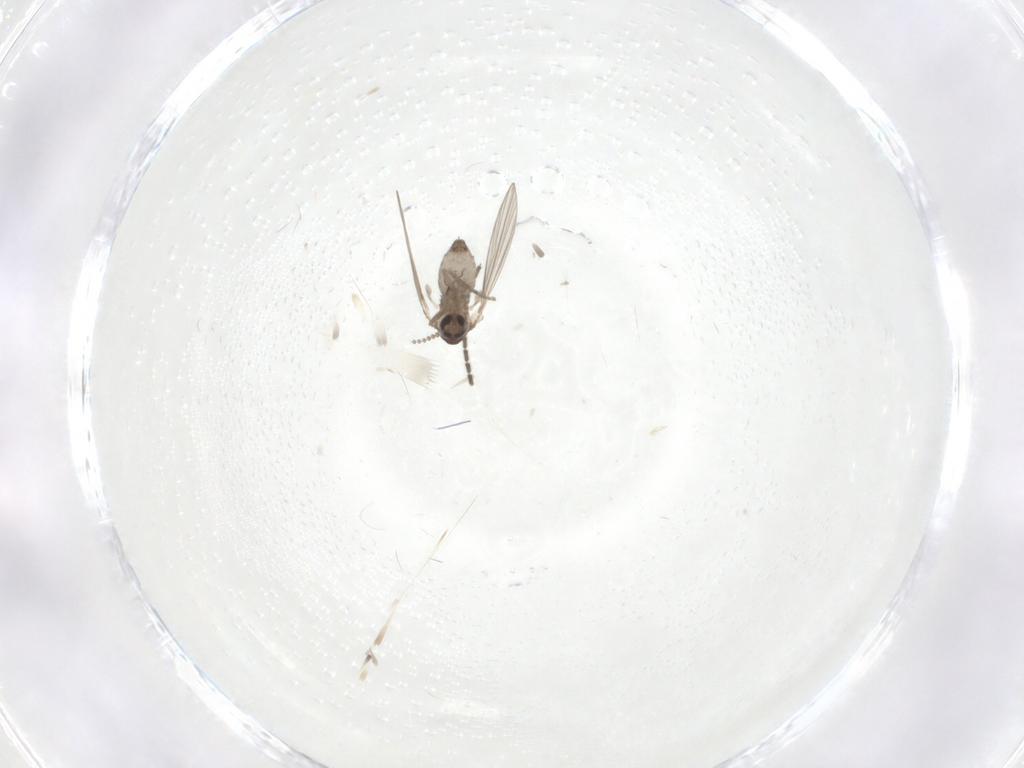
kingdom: Animalia
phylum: Arthropoda
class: Insecta
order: Diptera
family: Psychodidae
